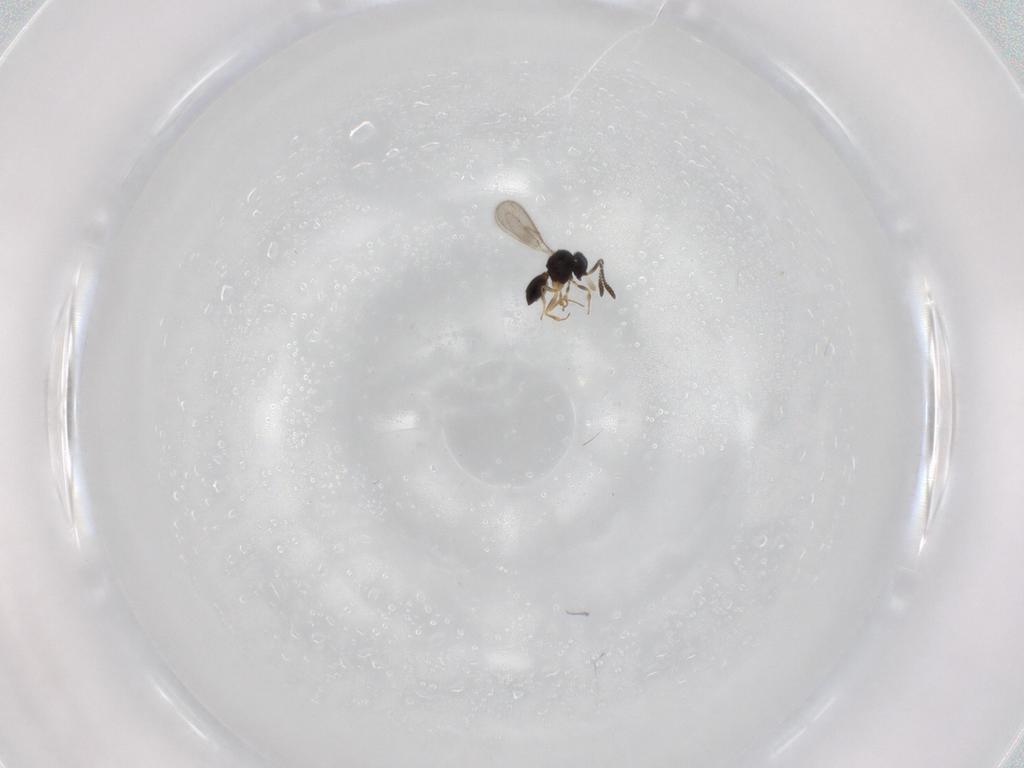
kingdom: Animalia
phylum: Arthropoda
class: Insecta
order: Hymenoptera
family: Scelionidae
